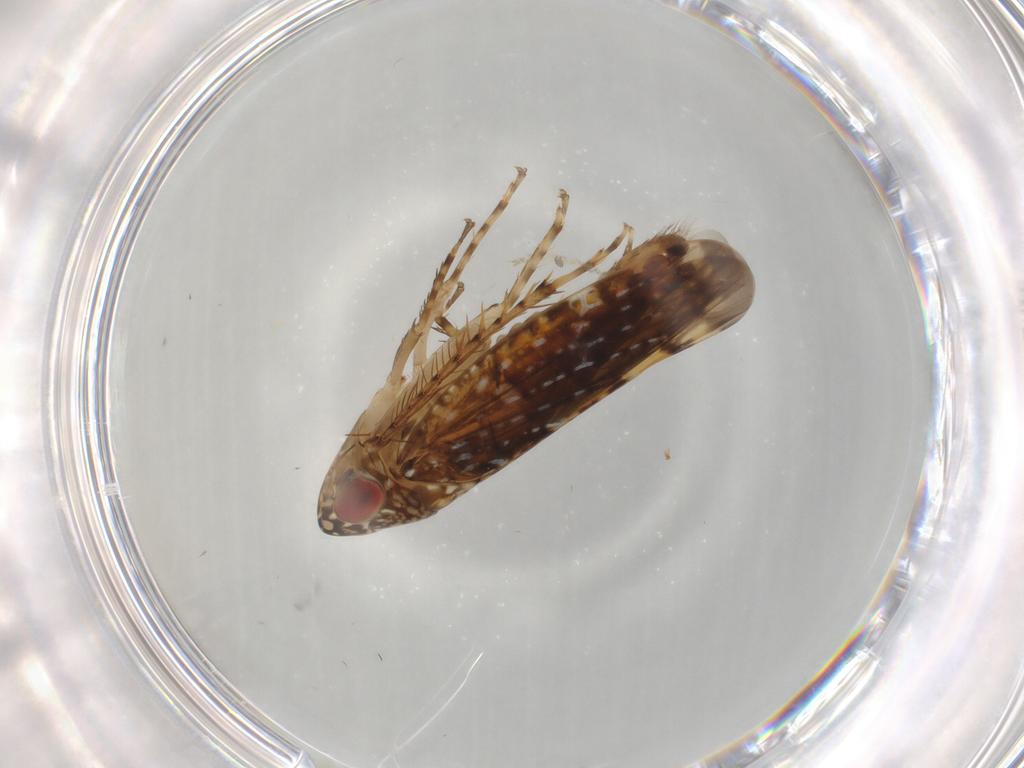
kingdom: Animalia
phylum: Arthropoda
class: Insecta
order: Hemiptera
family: Cicadellidae
